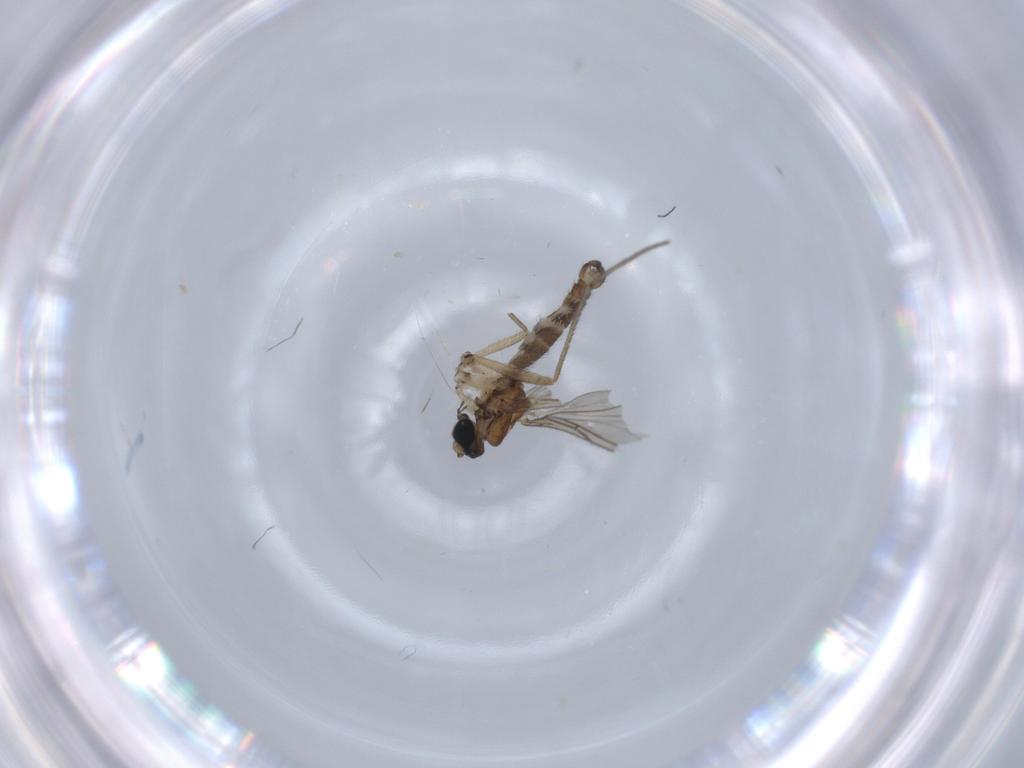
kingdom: Animalia
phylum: Arthropoda
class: Insecta
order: Diptera
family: Sciaridae
